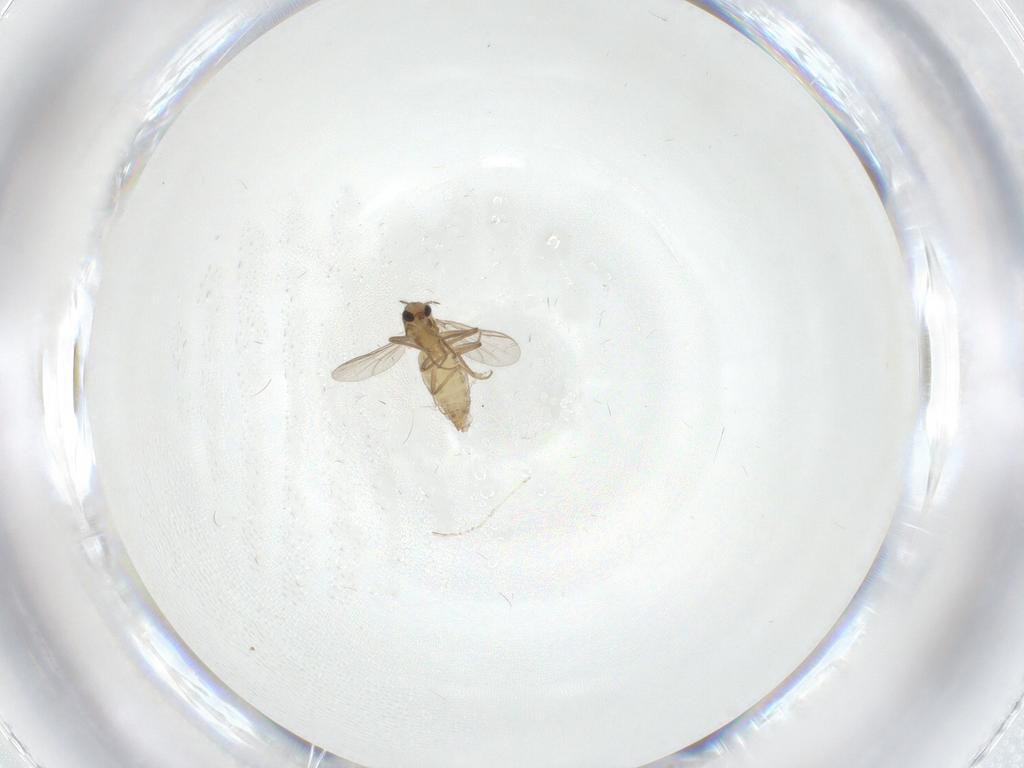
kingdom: Animalia
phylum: Arthropoda
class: Insecta
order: Diptera
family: Chironomidae
